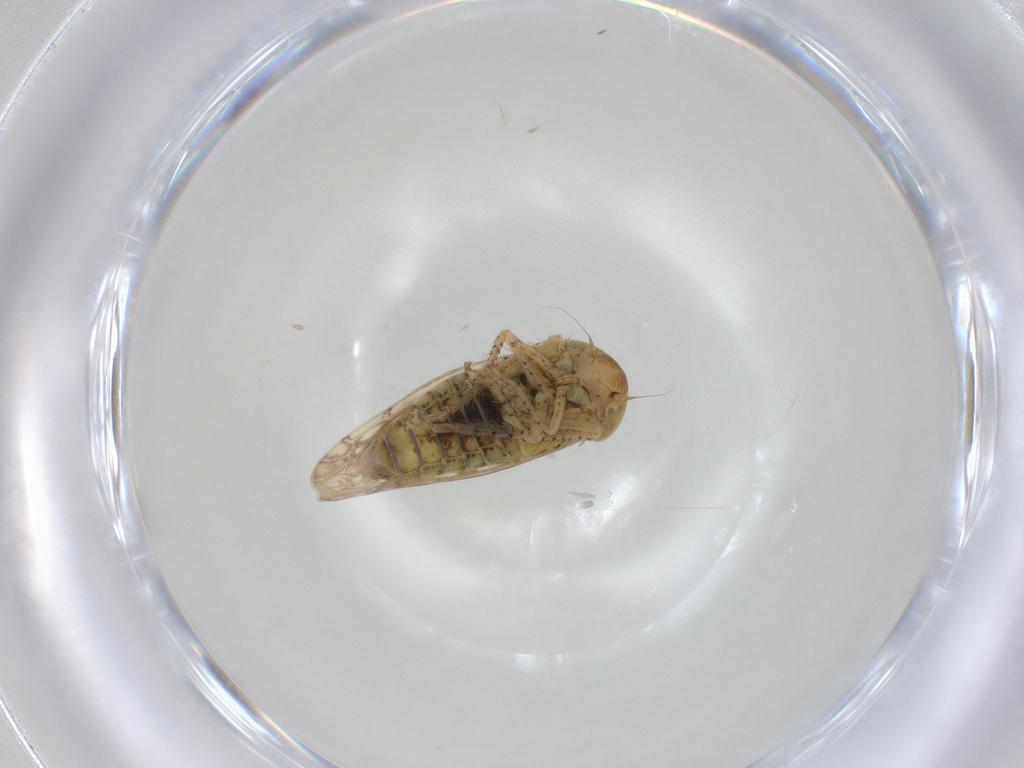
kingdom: Animalia
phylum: Arthropoda
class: Insecta
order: Hemiptera
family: Cicadellidae
